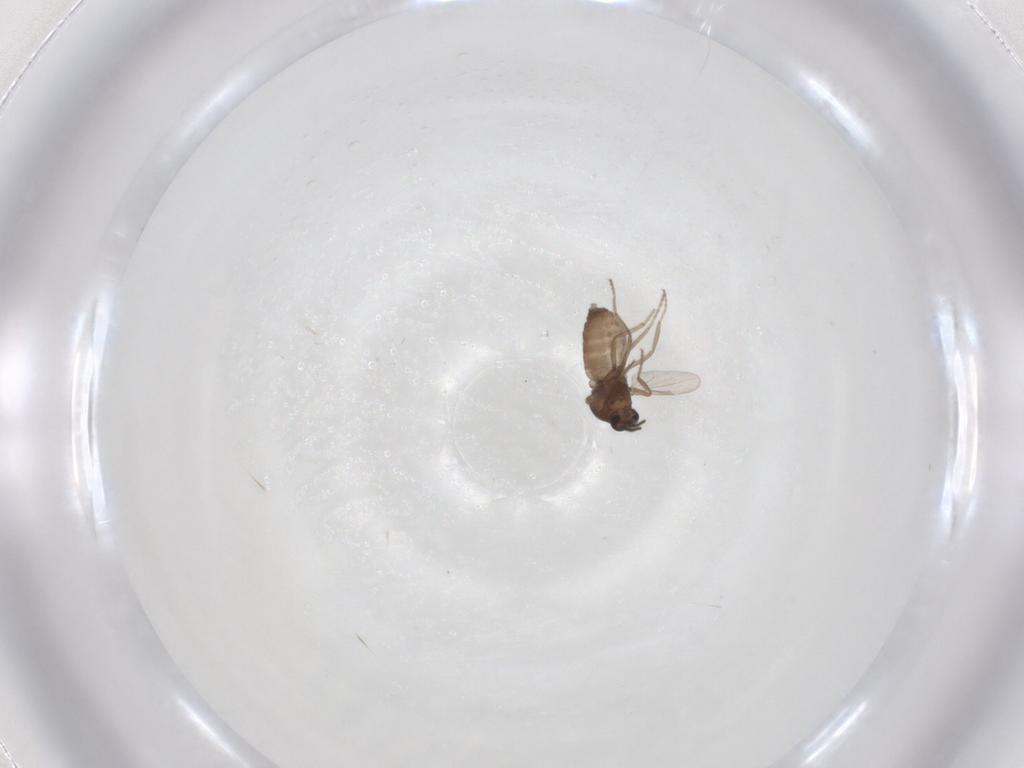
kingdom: Animalia
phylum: Arthropoda
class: Insecta
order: Diptera
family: Ceratopogonidae
